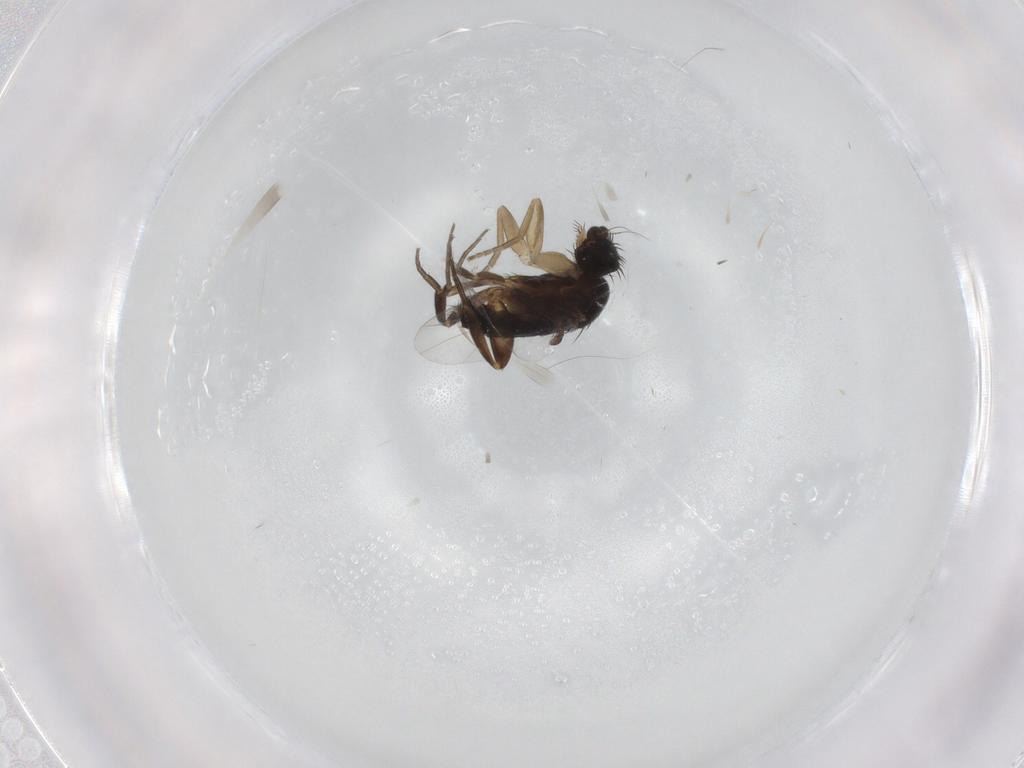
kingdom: Animalia
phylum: Arthropoda
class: Insecta
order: Diptera
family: Phoridae
